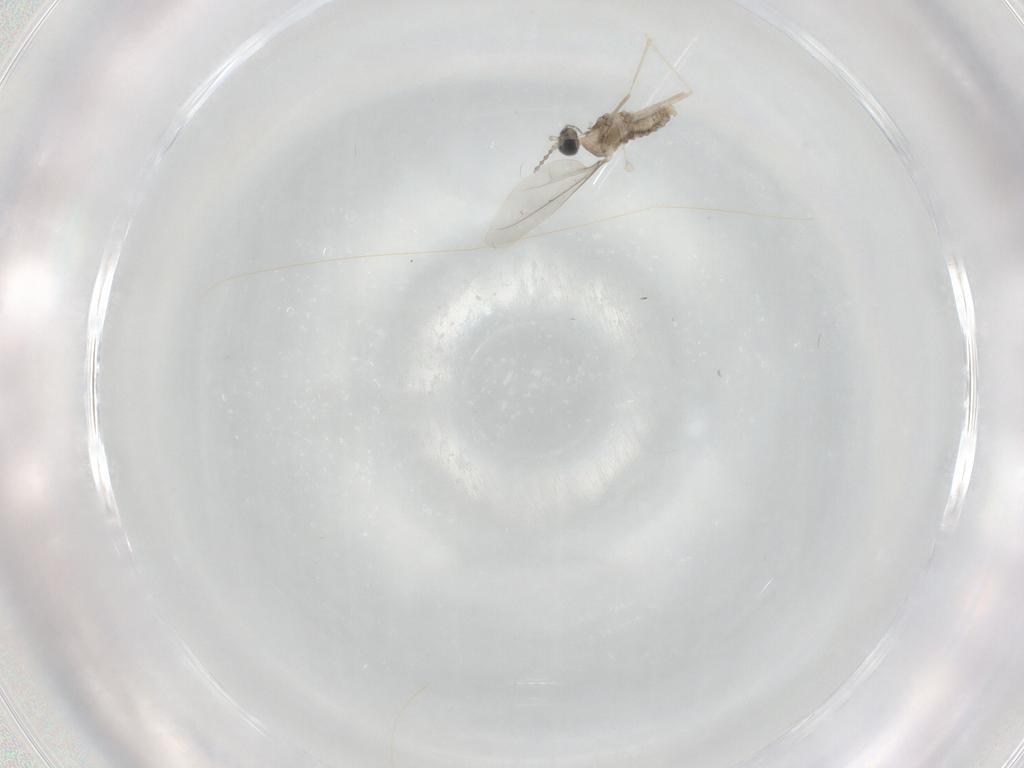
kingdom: Animalia
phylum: Arthropoda
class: Insecta
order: Diptera
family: Cecidomyiidae
